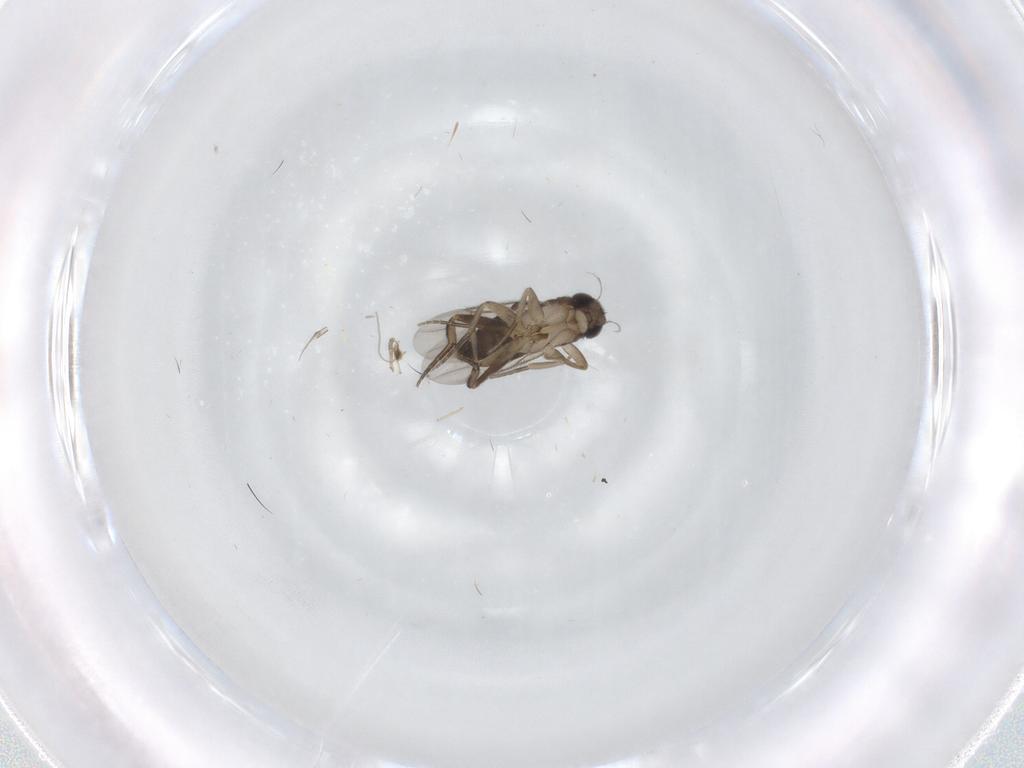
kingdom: Animalia
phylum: Arthropoda
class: Insecta
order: Diptera
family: Phoridae
